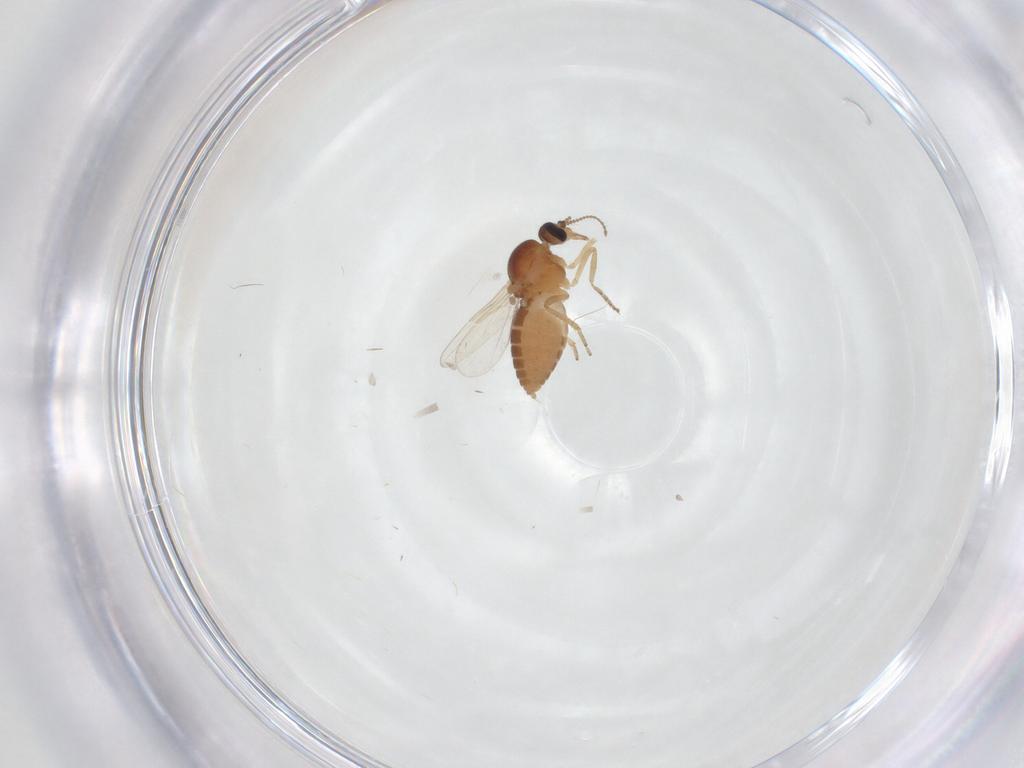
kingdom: Animalia
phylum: Arthropoda
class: Insecta
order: Diptera
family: Ceratopogonidae
